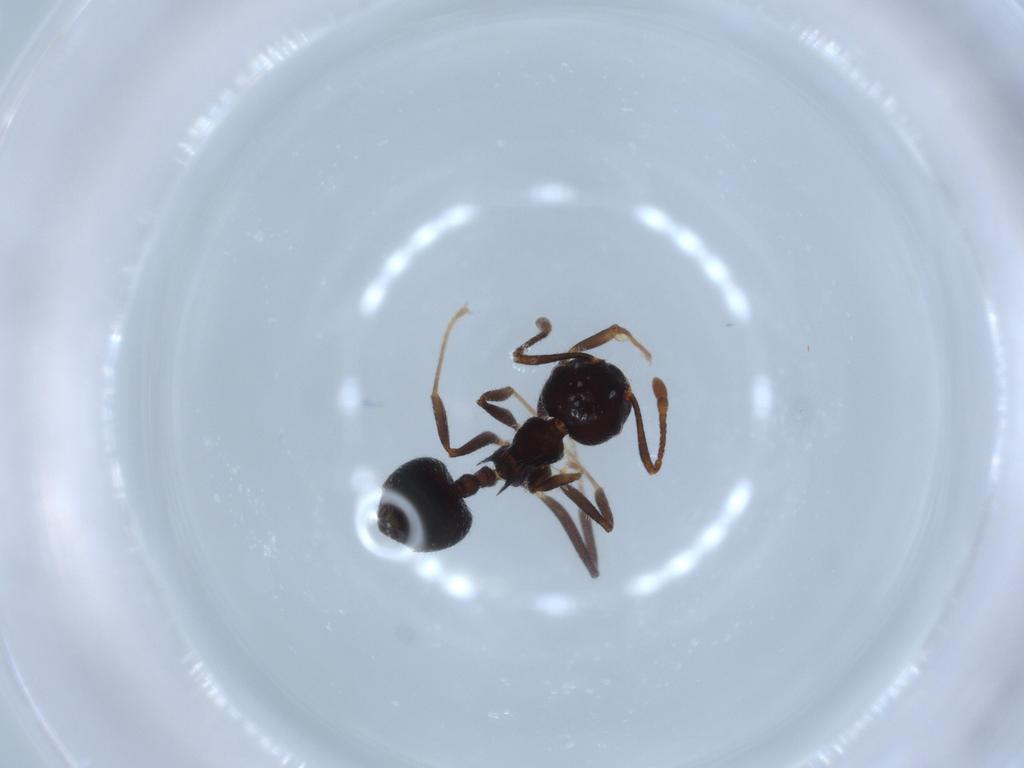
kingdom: Animalia
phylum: Arthropoda
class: Insecta
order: Hymenoptera
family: Formicidae
